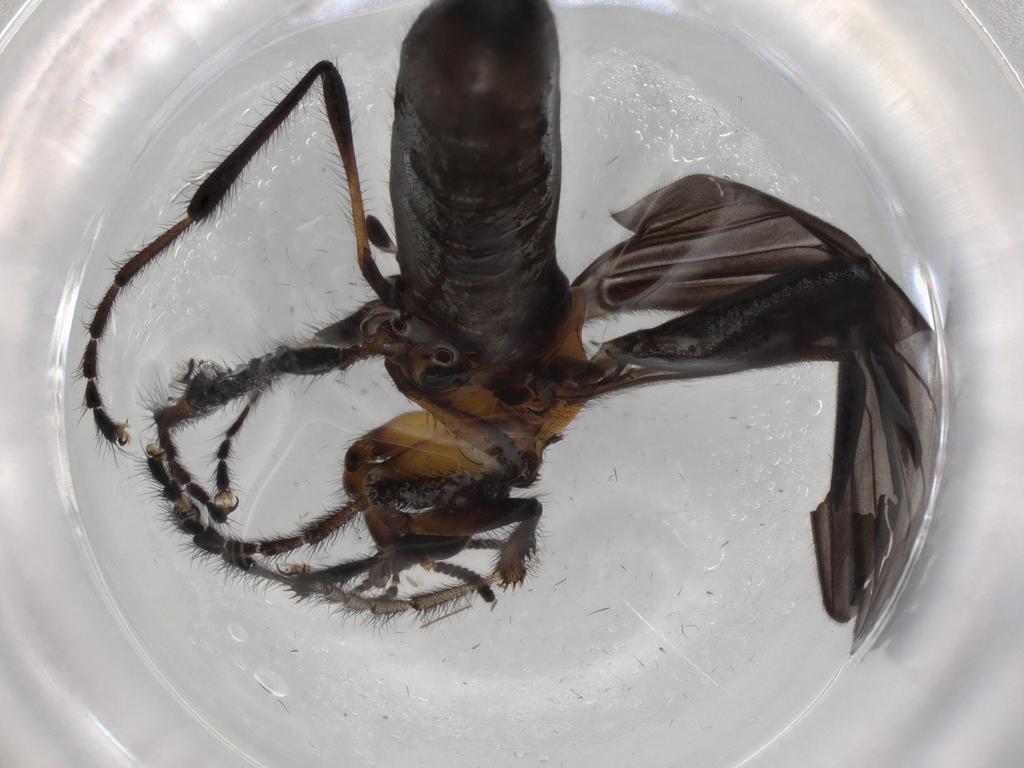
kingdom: Animalia
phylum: Arthropoda
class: Insecta
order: Diptera
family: Bibionidae
